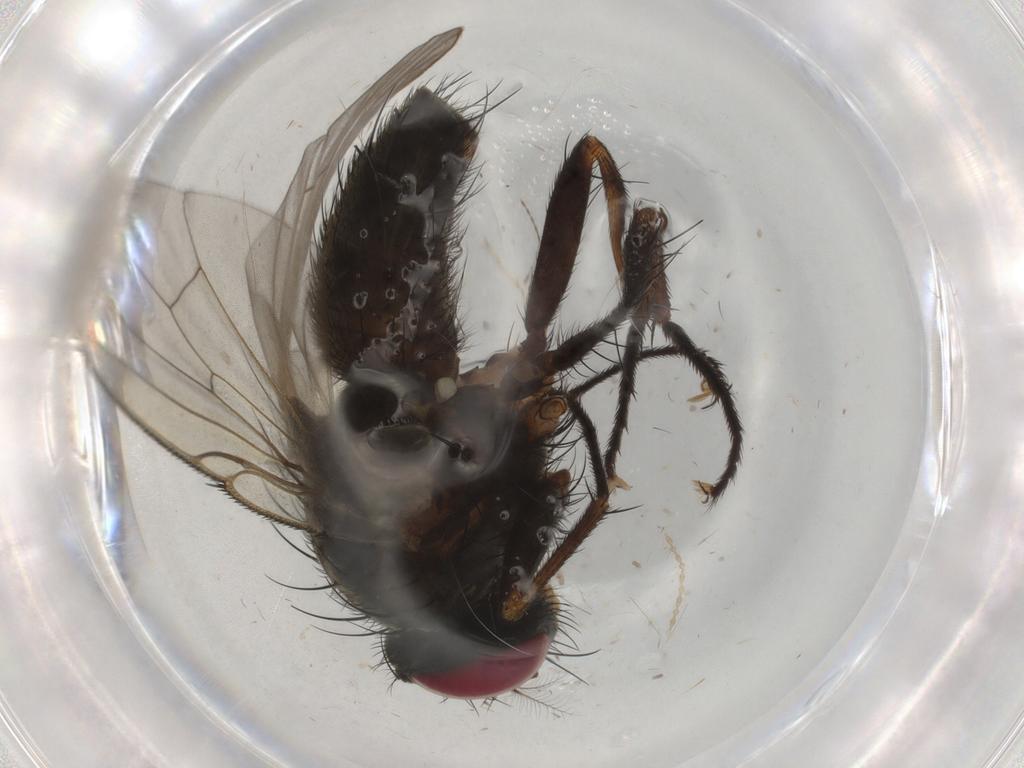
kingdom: Animalia
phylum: Arthropoda
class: Insecta
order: Diptera
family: Muscidae
